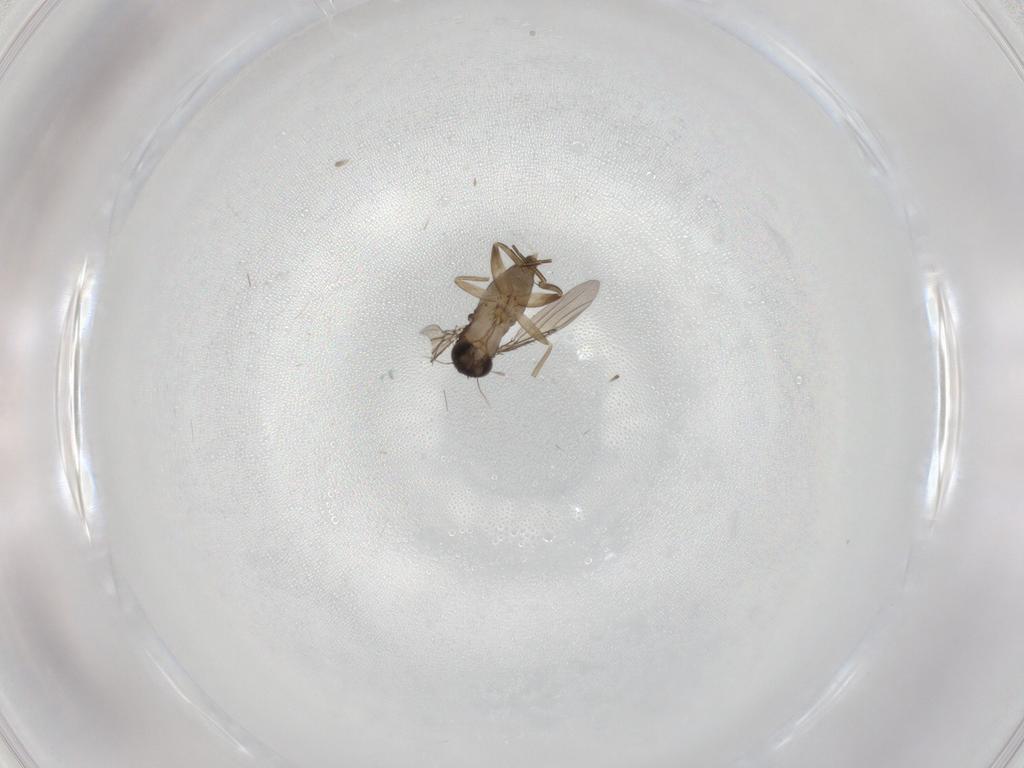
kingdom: Animalia
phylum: Arthropoda
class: Insecta
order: Diptera
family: Phoridae
